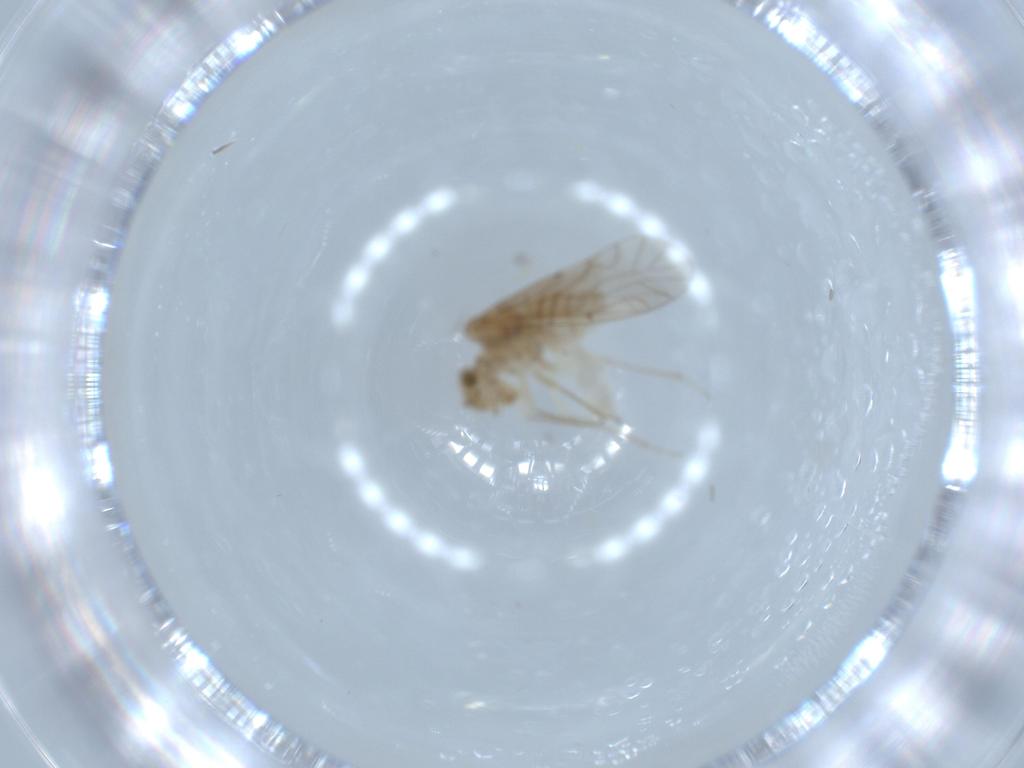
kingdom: Animalia
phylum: Arthropoda
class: Insecta
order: Psocodea
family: Lachesillidae
